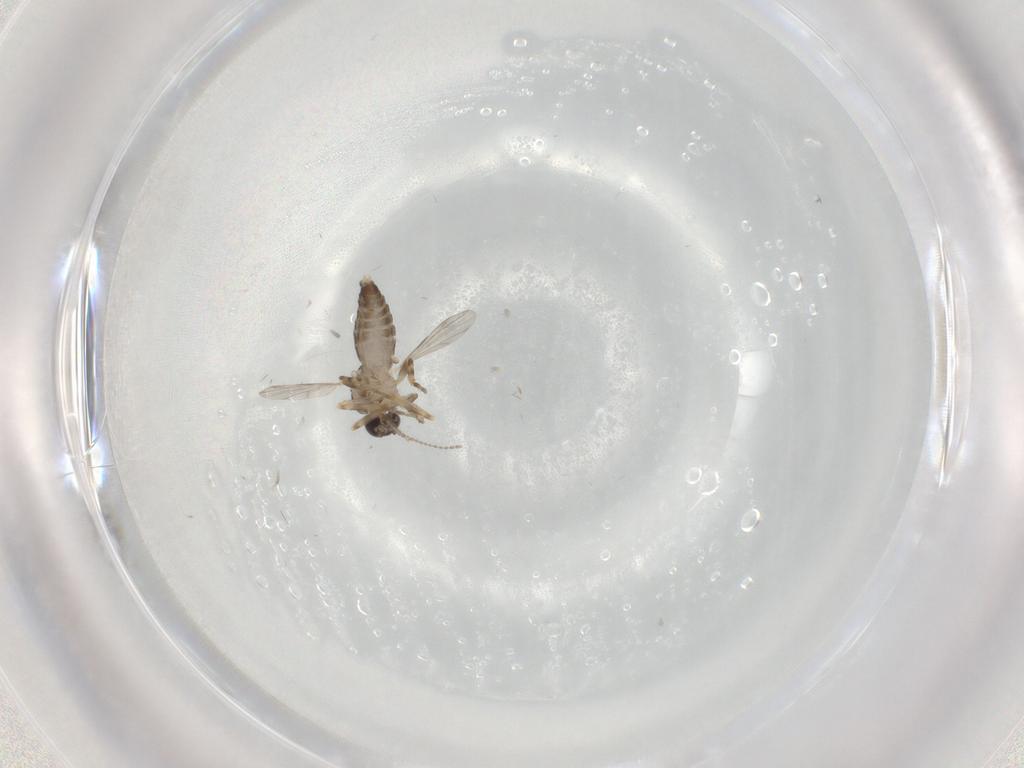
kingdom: Animalia
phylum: Arthropoda
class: Insecta
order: Diptera
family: Ceratopogonidae
